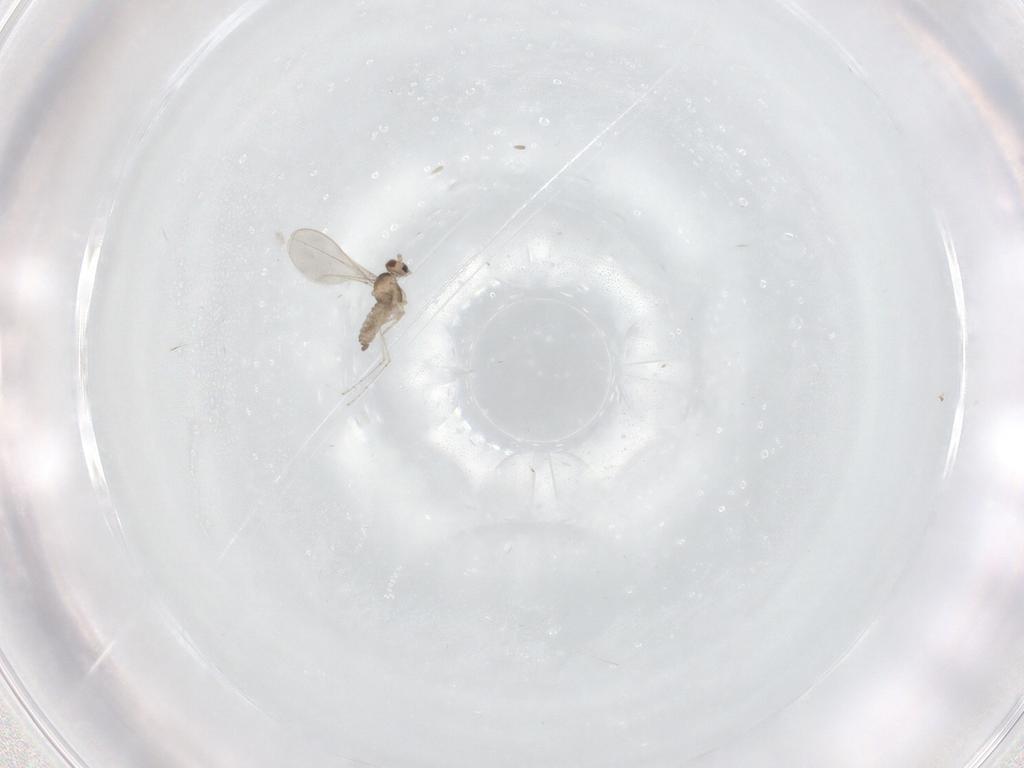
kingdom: Animalia
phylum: Arthropoda
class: Insecta
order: Diptera
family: Cecidomyiidae
